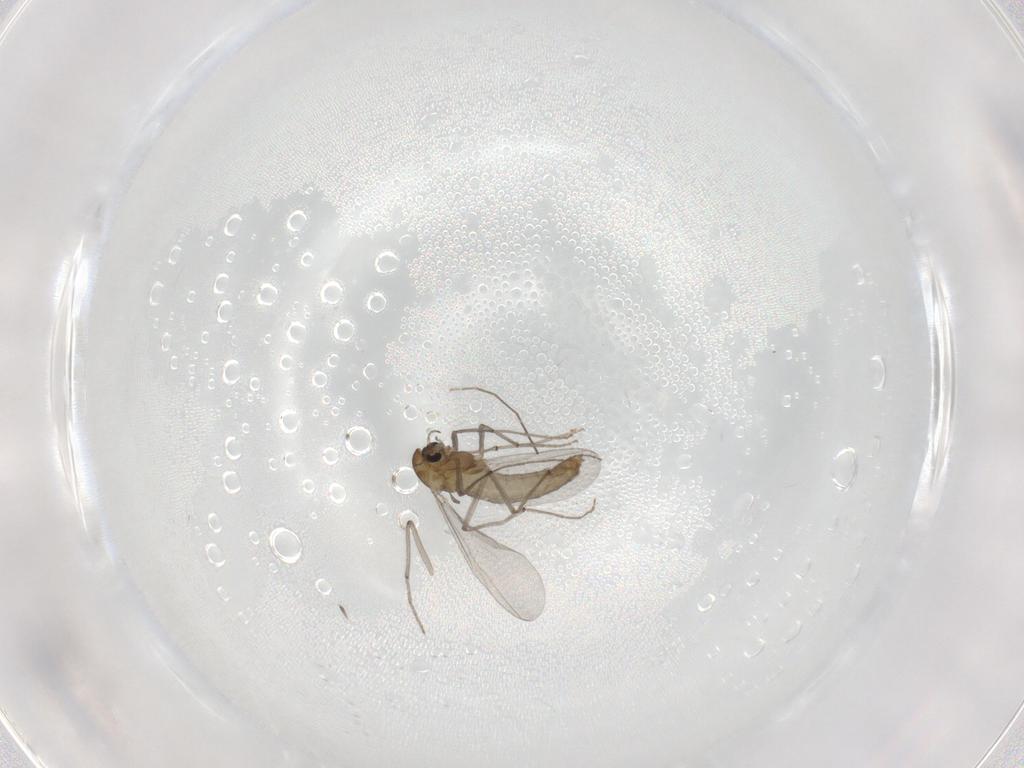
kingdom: Animalia
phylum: Arthropoda
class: Insecta
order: Diptera
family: Chironomidae
